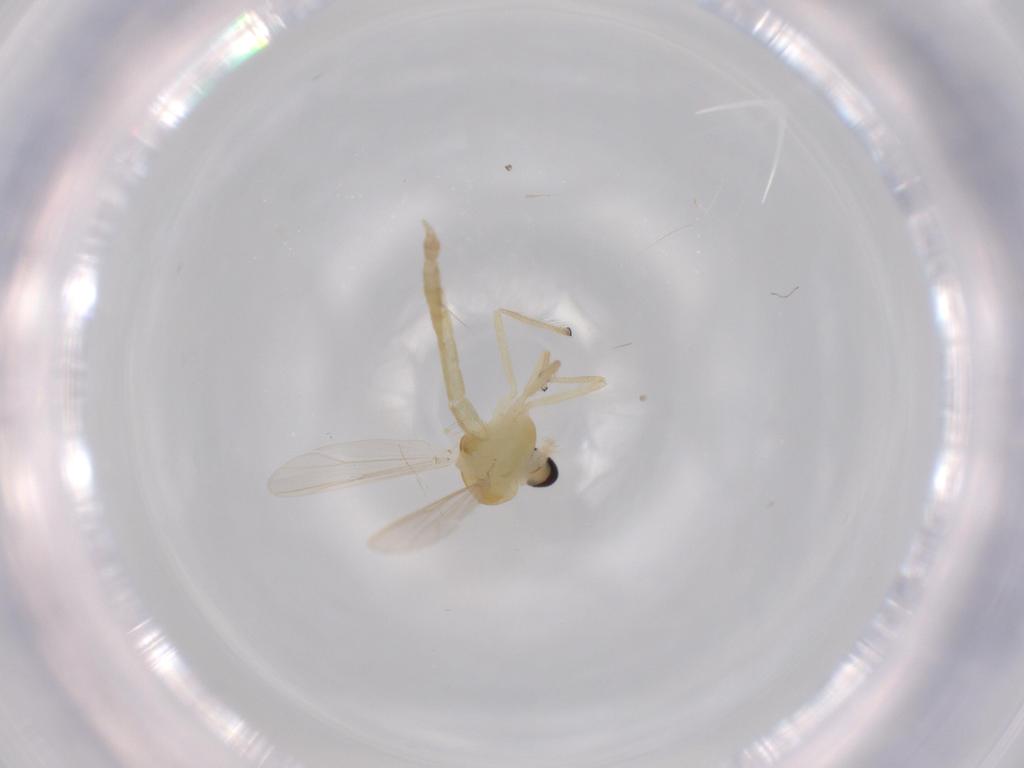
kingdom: Animalia
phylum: Arthropoda
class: Insecta
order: Diptera
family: Chironomidae
